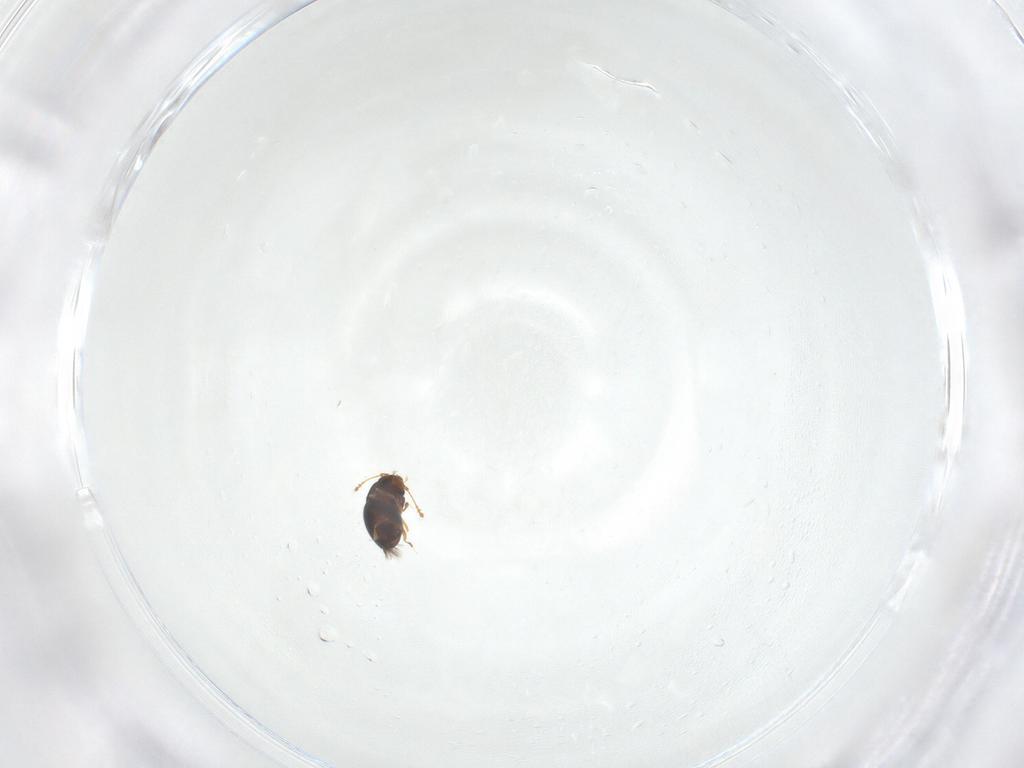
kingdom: Animalia
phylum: Arthropoda
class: Insecta
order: Coleoptera
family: Ptiliidae
